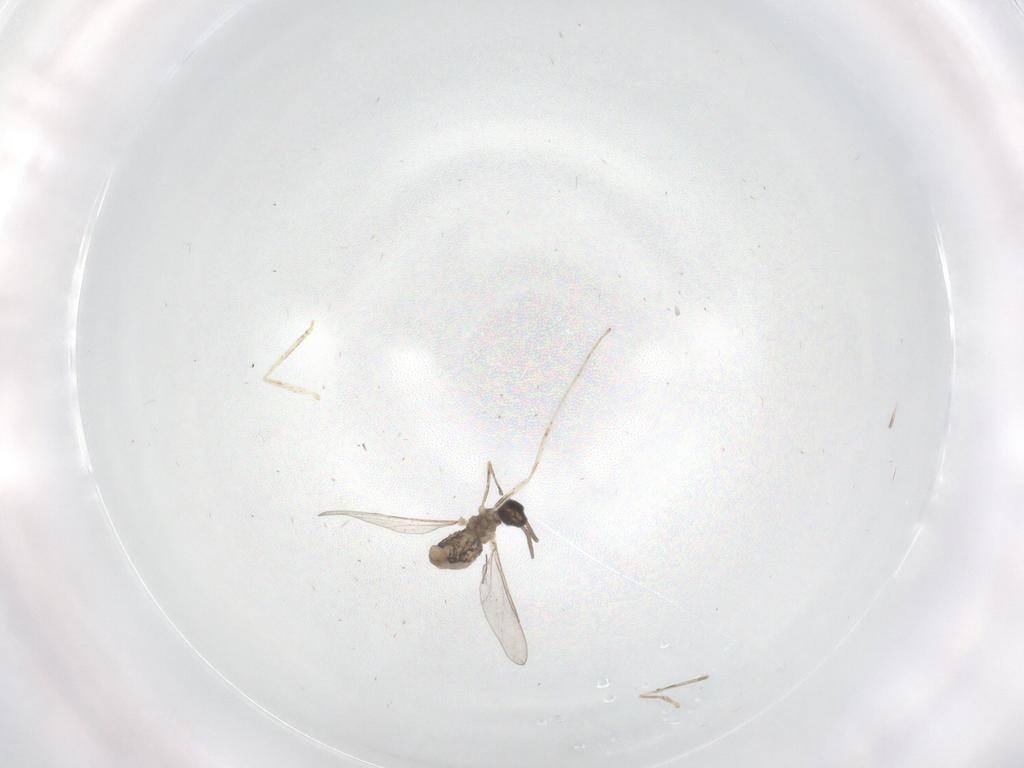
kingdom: Animalia
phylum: Arthropoda
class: Insecta
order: Diptera
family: Cecidomyiidae
